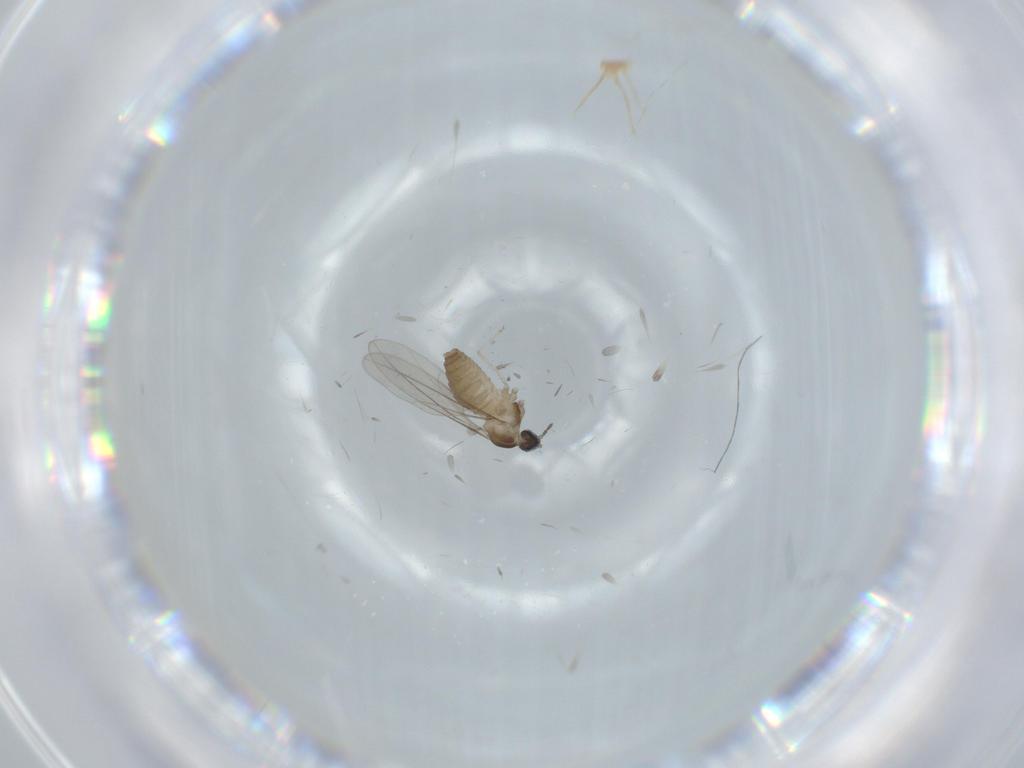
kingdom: Animalia
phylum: Arthropoda
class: Insecta
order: Diptera
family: Cecidomyiidae
